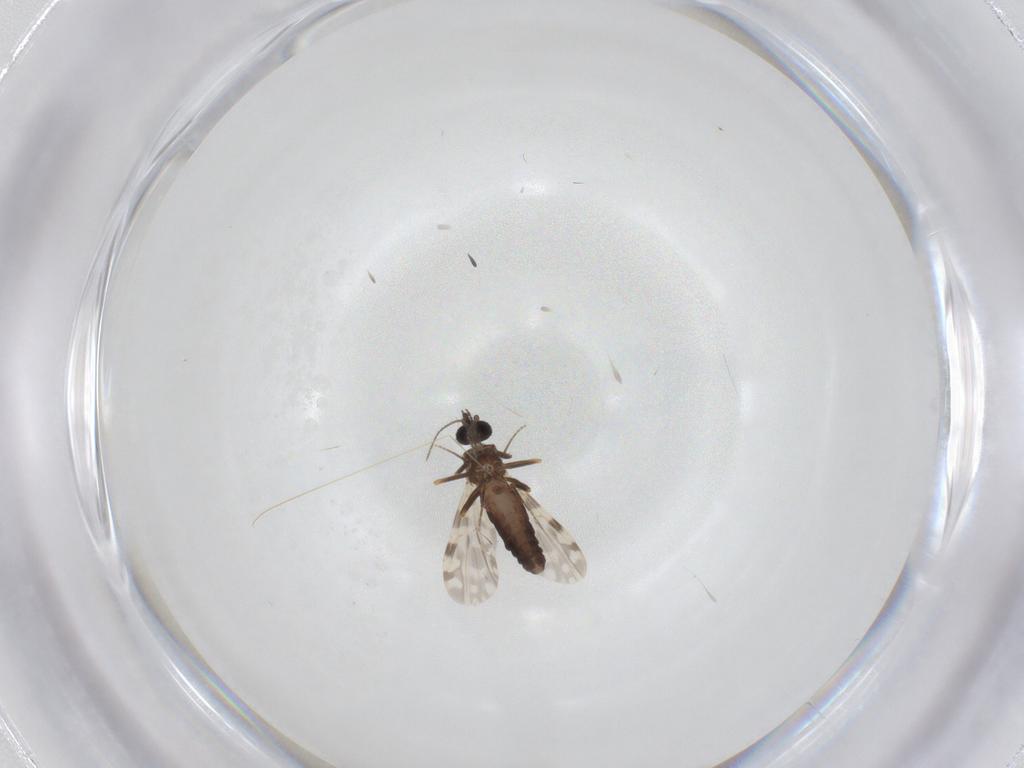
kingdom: Animalia
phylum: Arthropoda
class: Insecta
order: Diptera
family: Ceratopogonidae
